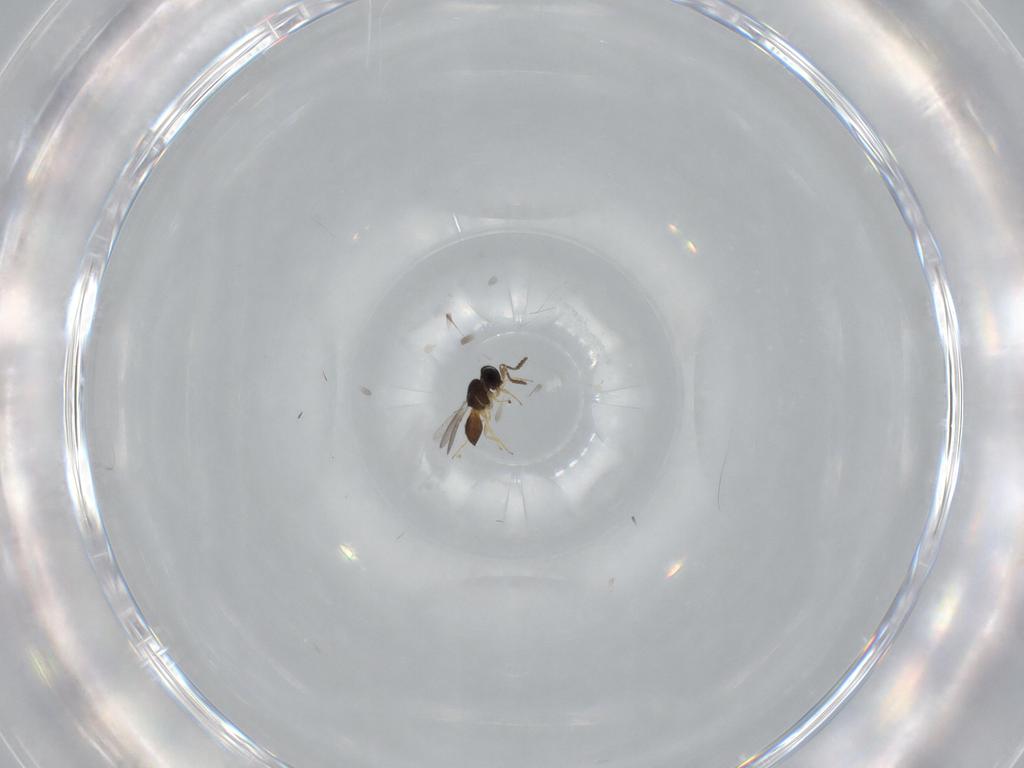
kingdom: Animalia
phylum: Arthropoda
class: Insecta
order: Hymenoptera
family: Scelionidae
